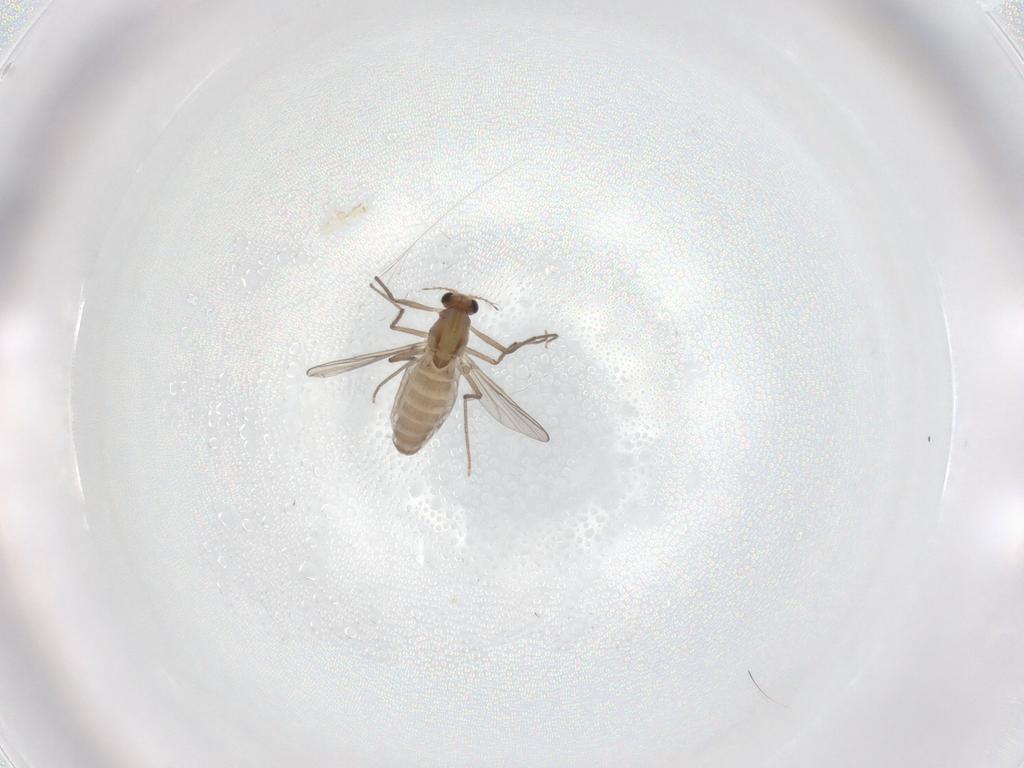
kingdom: Animalia
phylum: Arthropoda
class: Insecta
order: Diptera
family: Chironomidae
